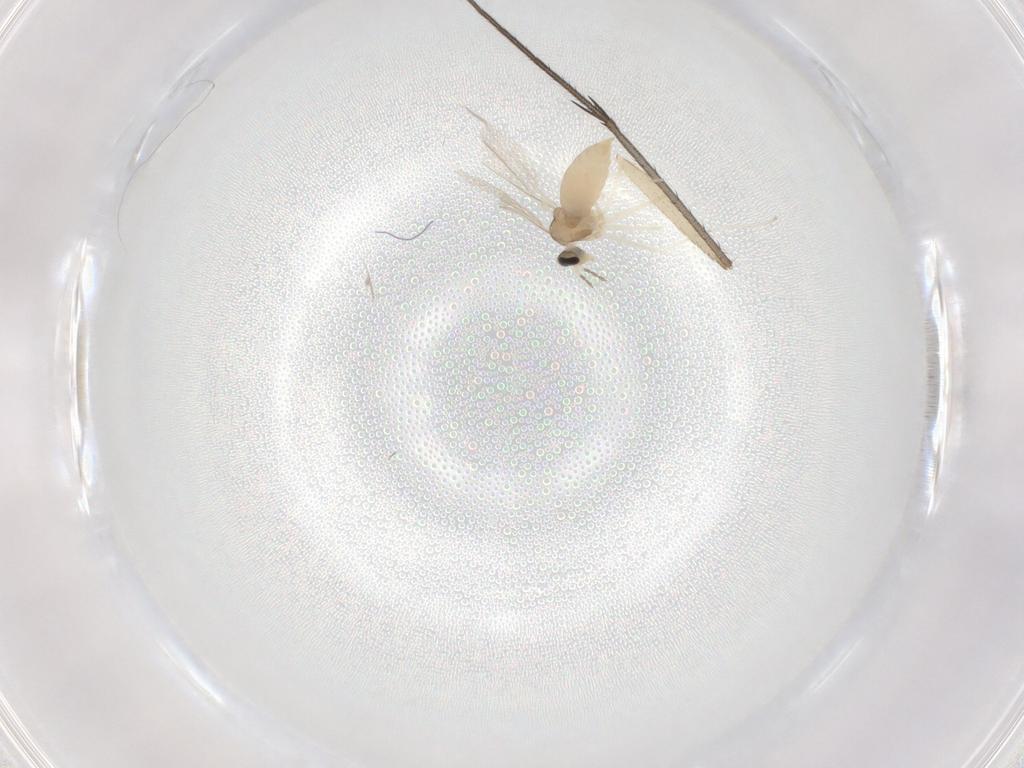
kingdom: Animalia
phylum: Arthropoda
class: Insecta
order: Diptera
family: Cecidomyiidae
